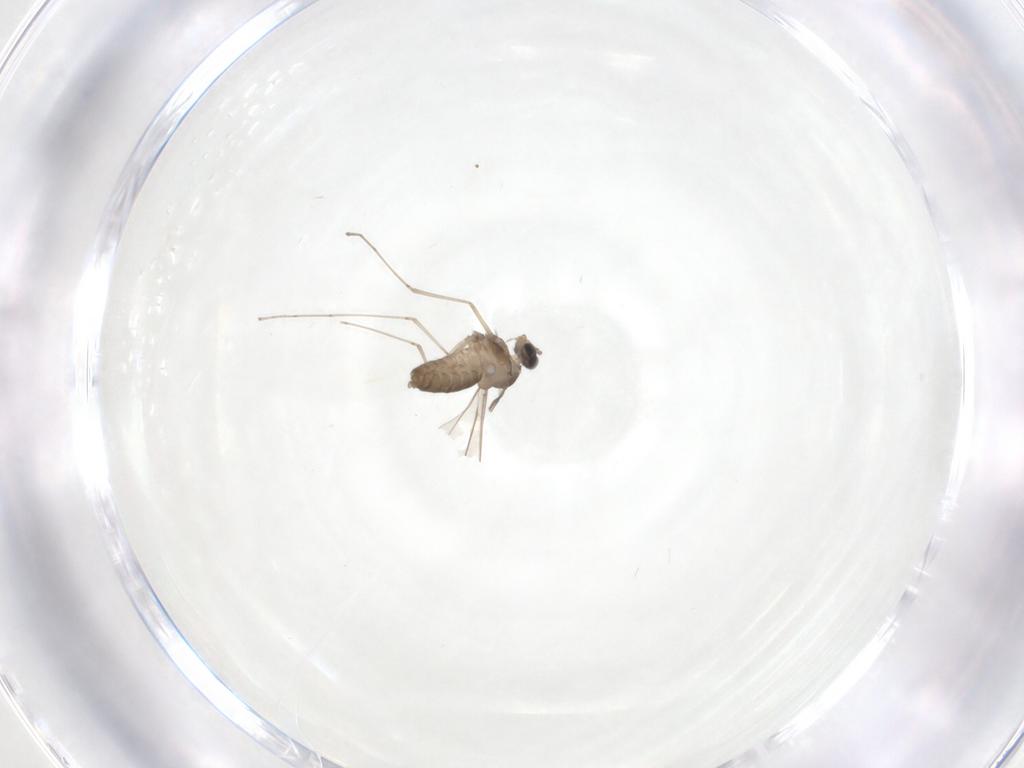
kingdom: Animalia
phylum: Arthropoda
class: Insecta
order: Diptera
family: Cecidomyiidae
